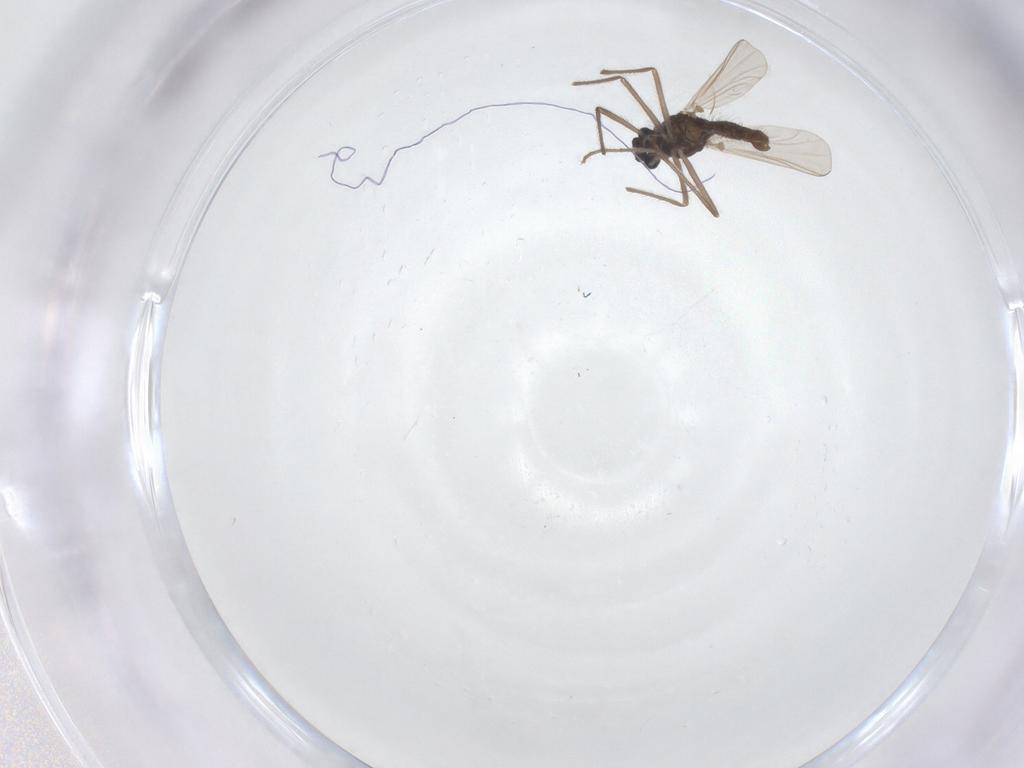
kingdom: Animalia
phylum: Arthropoda
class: Insecta
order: Diptera
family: Chironomidae
